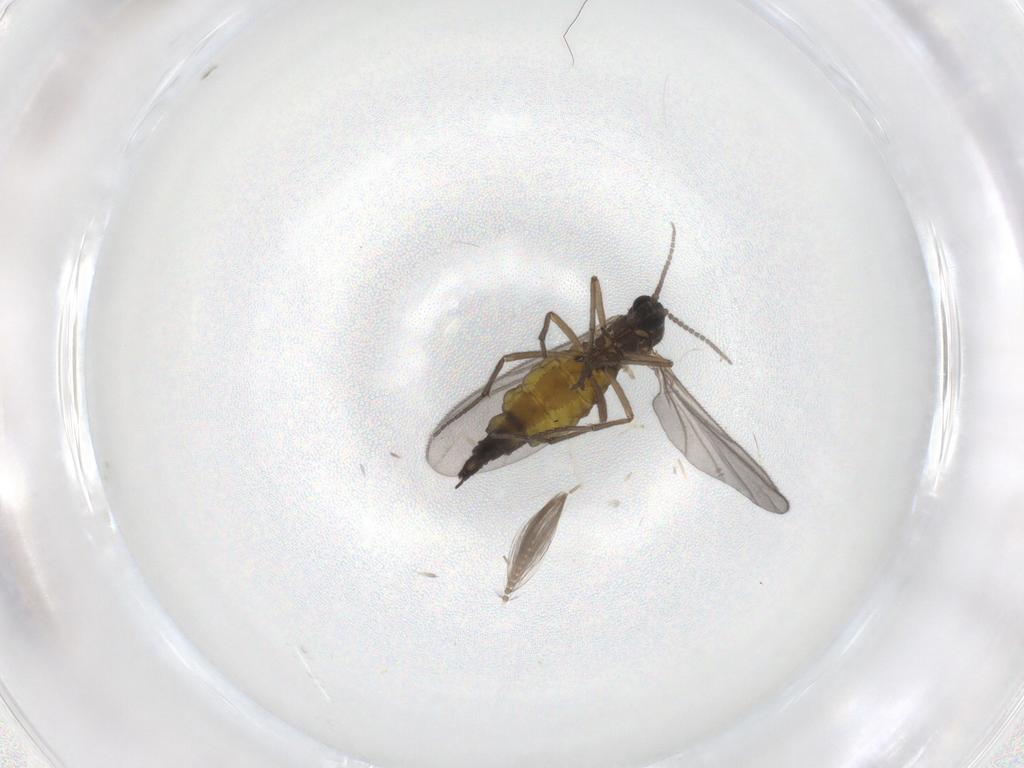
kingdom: Animalia
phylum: Arthropoda
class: Insecta
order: Diptera
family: Sciaridae
